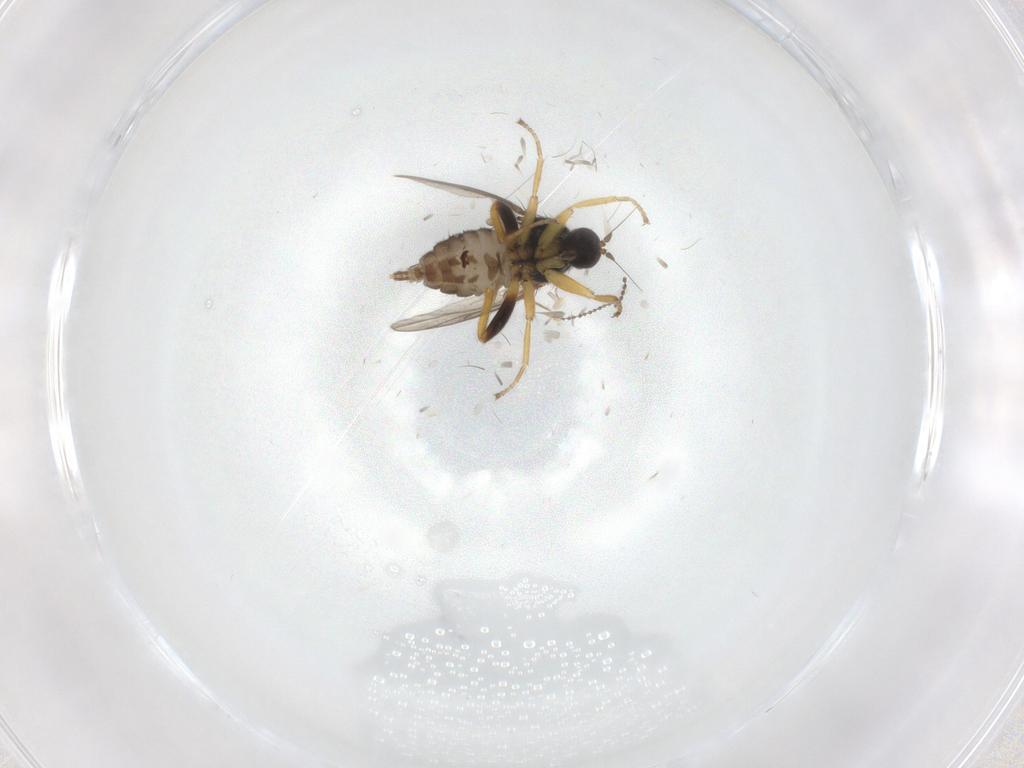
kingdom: Animalia
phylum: Arthropoda
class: Insecta
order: Diptera
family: Hybotidae
